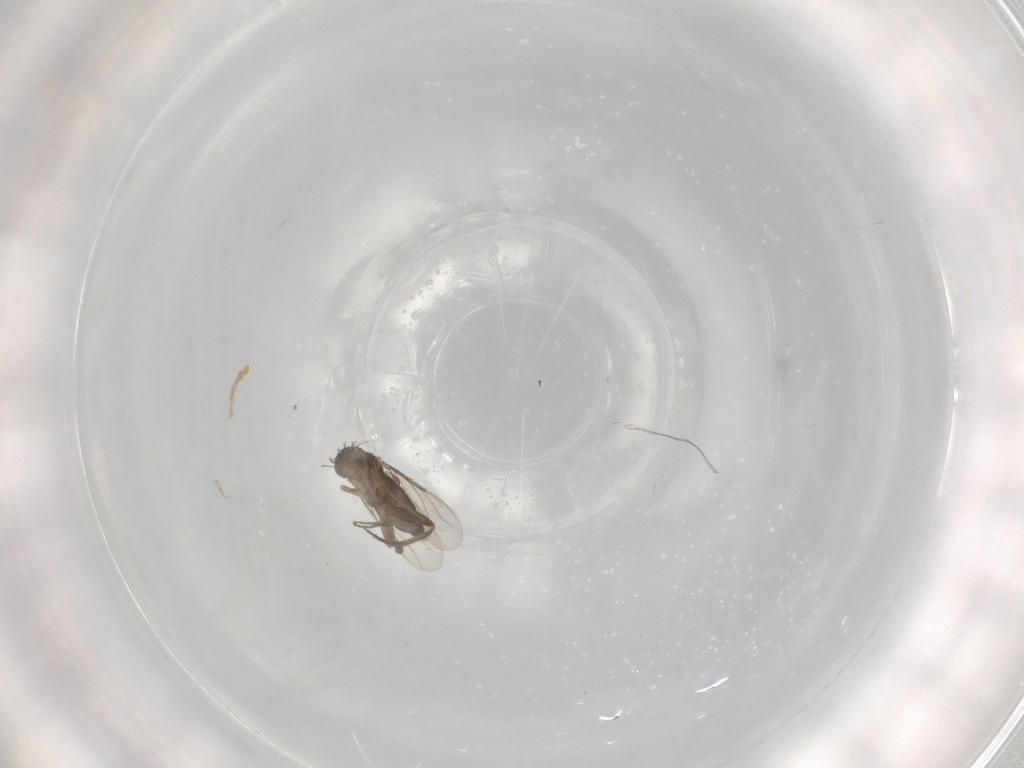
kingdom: Animalia
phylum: Arthropoda
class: Insecta
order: Diptera
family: Phoridae
